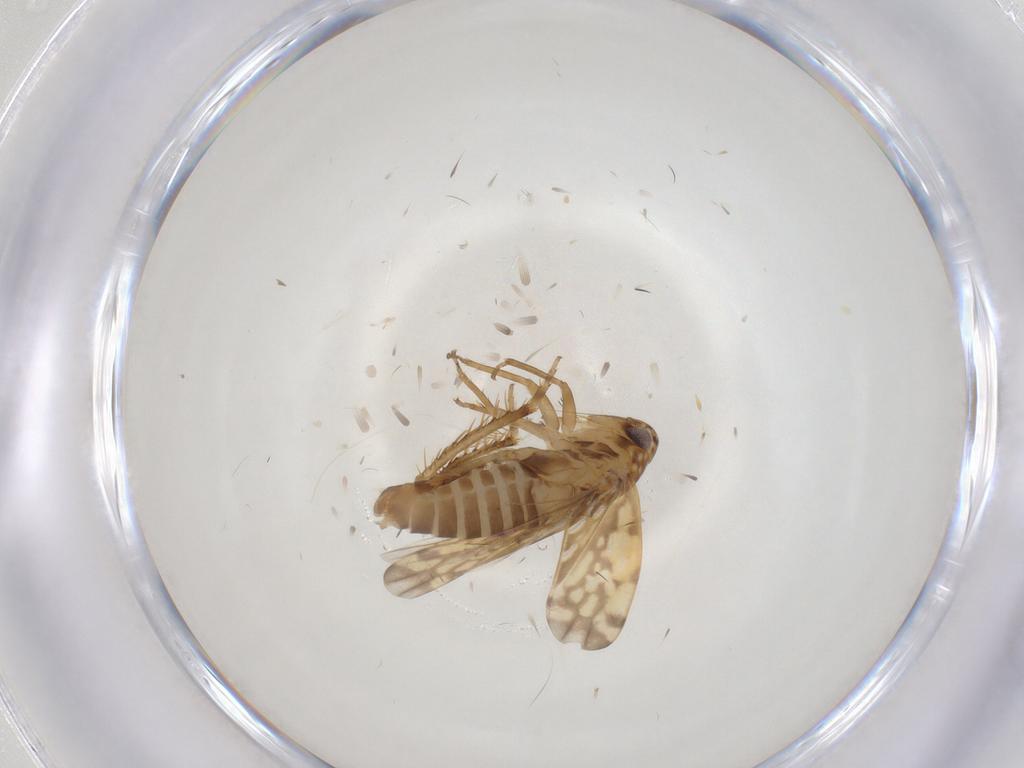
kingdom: Animalia
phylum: Arthropoda
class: Insecta
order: Hemiptera
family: Cicadellidae
